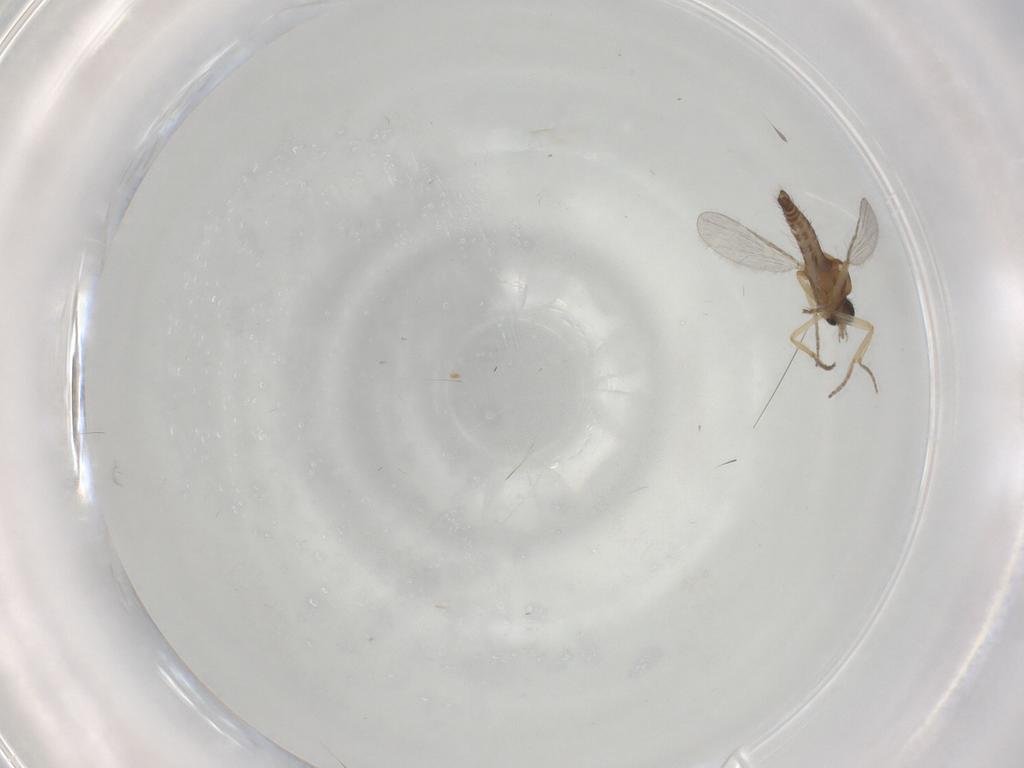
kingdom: Animalia
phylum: Arthropoda
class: Insecta
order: Diptera
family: Ceratopogonidae
